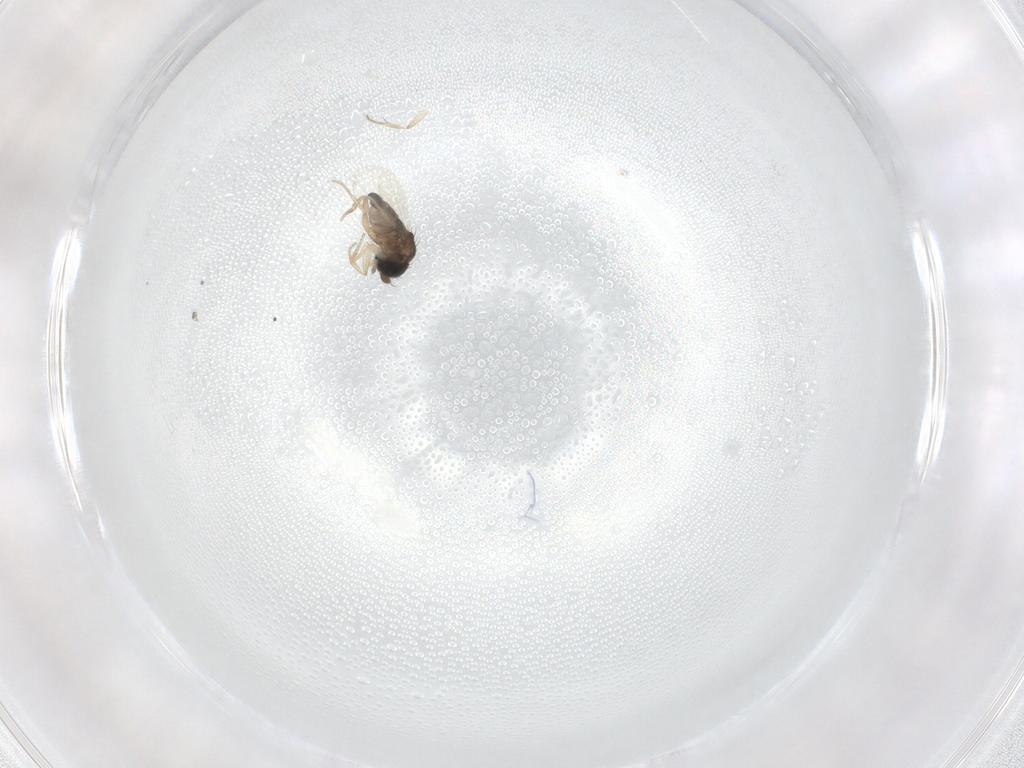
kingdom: Animalia
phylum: Arthropoda
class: Insecta
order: Diptera
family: Phoridae
